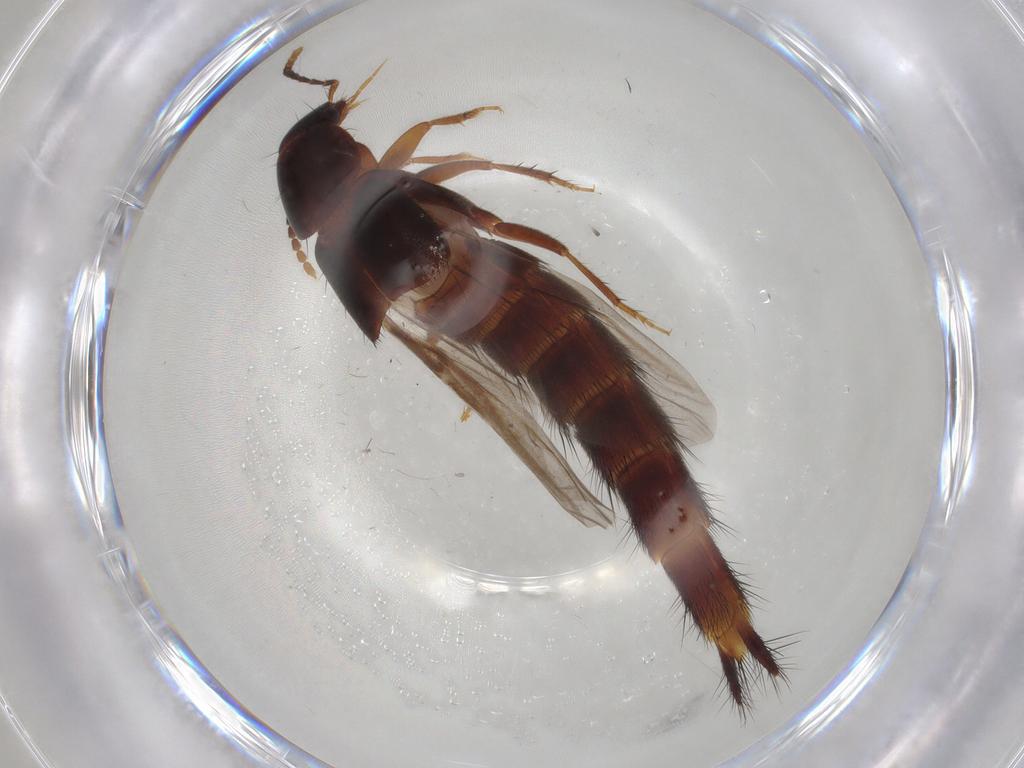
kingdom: Animalia
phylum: Arthropoda
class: Insecta
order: Coleoptera
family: Staphylinidae
